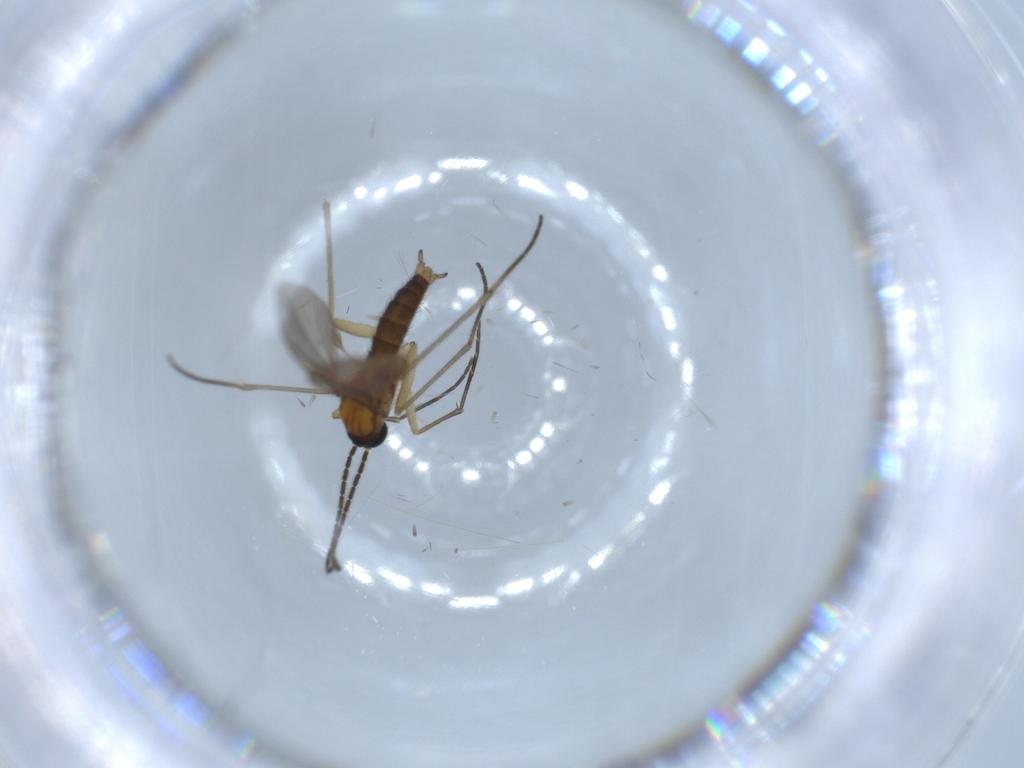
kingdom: Animalia
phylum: Arthropoda
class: Insecta
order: Diptera
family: Sciaridae
